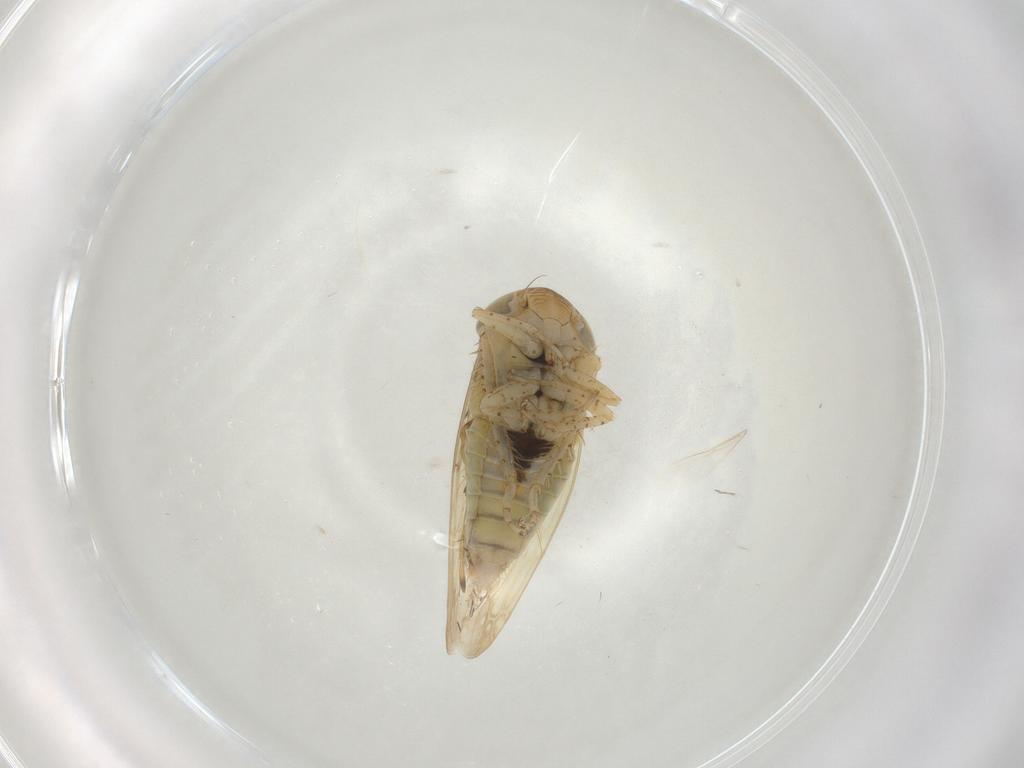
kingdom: Animalia
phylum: Arthropoda
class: Insecta
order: Hemiptera
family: Cicadellidae
